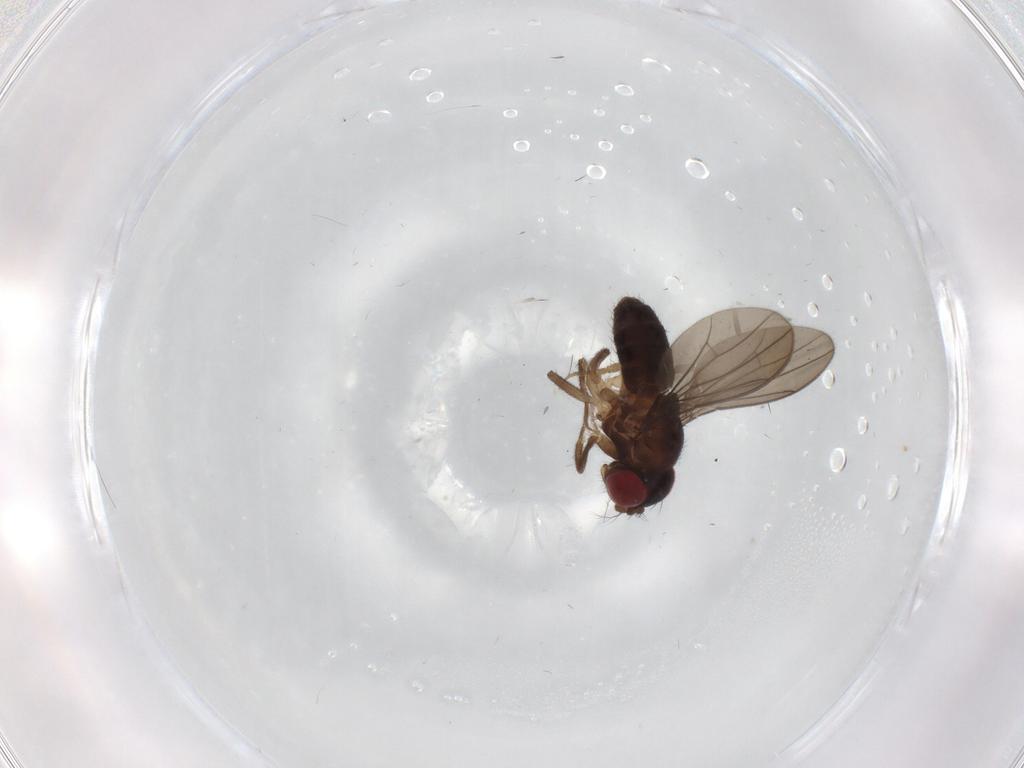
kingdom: Animalia
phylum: Arthropoda
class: Insecta
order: Diptera
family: Drosophilidae
